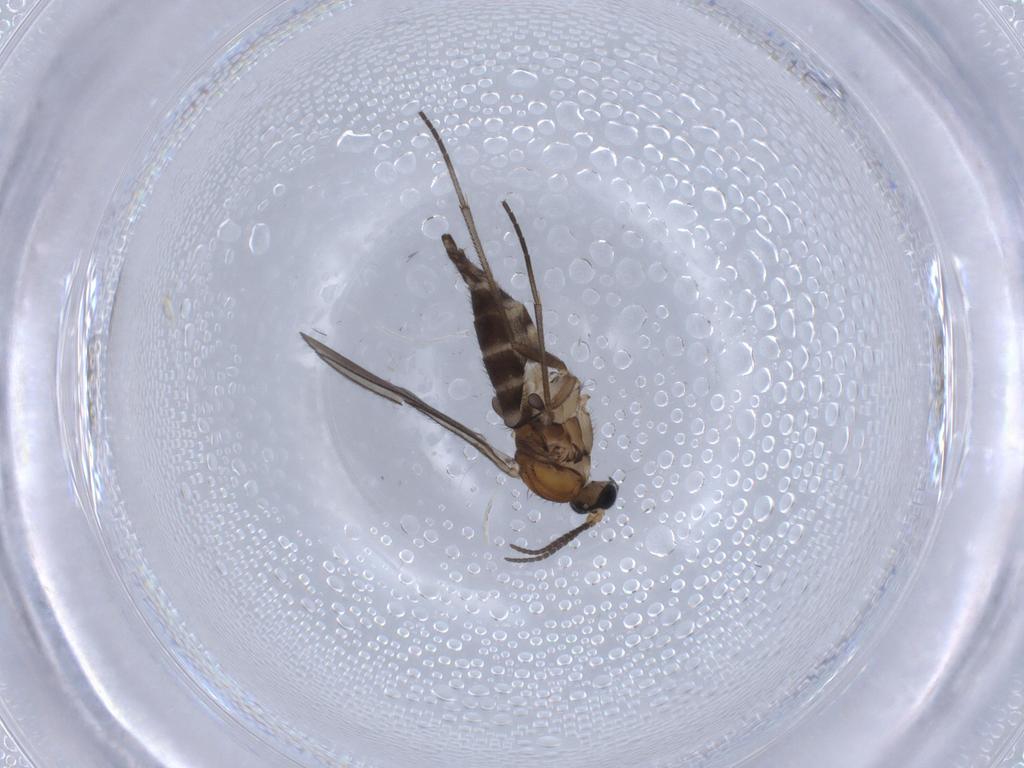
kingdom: Animalia
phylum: Arthropoda
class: Insecta
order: Diptera
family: Sciaridae
